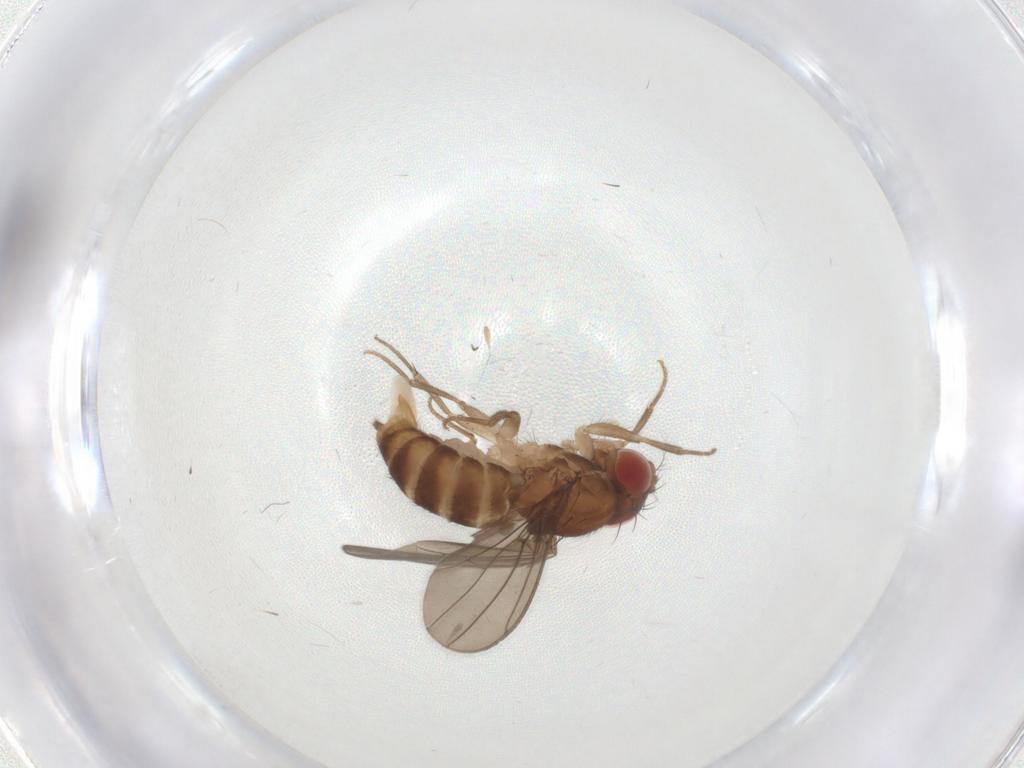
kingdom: Animalia
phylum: Arthropoda
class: Insecta
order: Diptera
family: Drosophilidae
